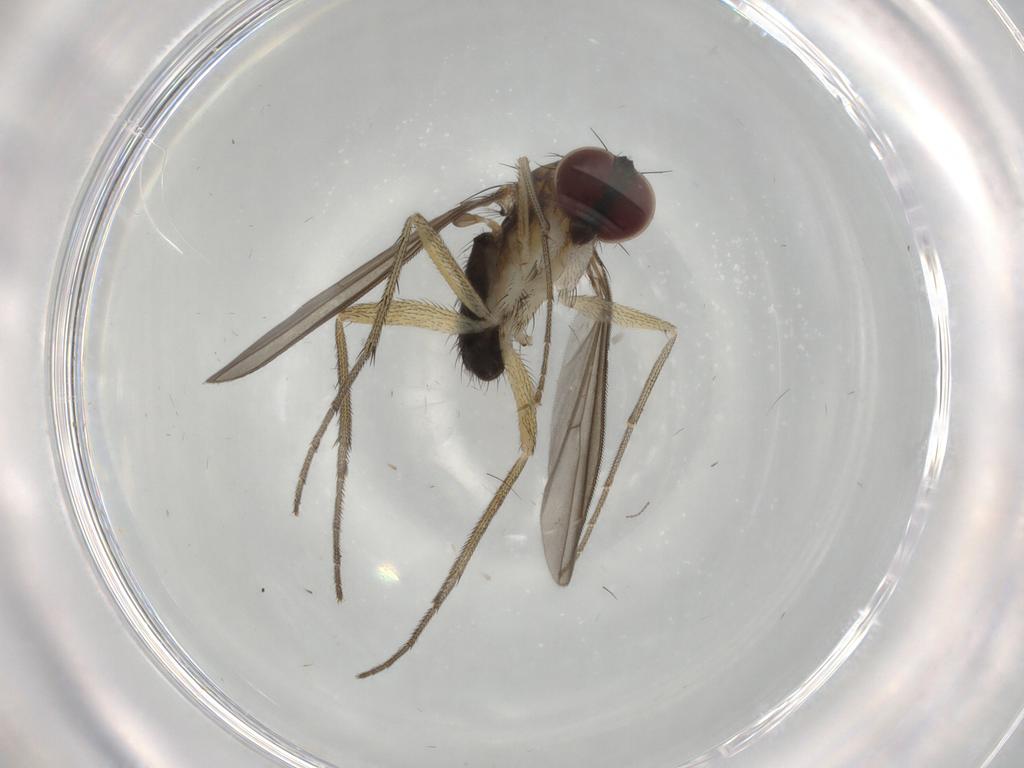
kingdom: Animalia
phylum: Arthropoda
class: Insecta
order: Diptera
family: Dolichopodidae
